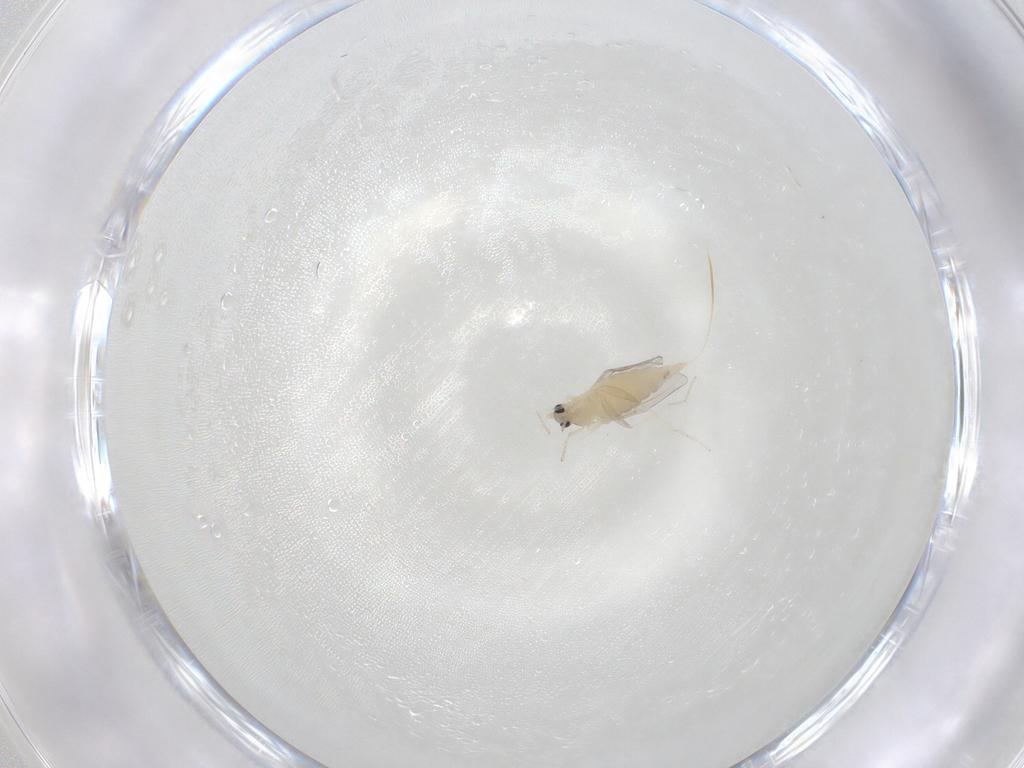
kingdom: Animalia
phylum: Arthropoda
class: Insecta
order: Diptera
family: Cecidomyiidae
